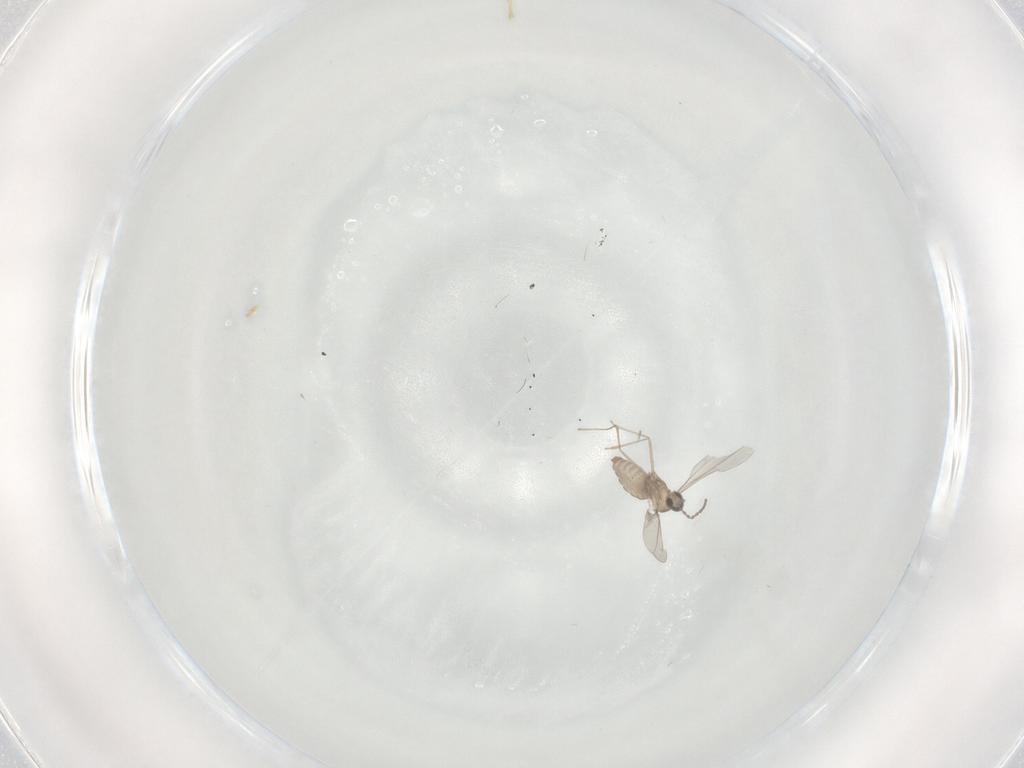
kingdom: Animalia
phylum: Arthropoda
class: Insecta
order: Diptera
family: Cecidomyiidae
